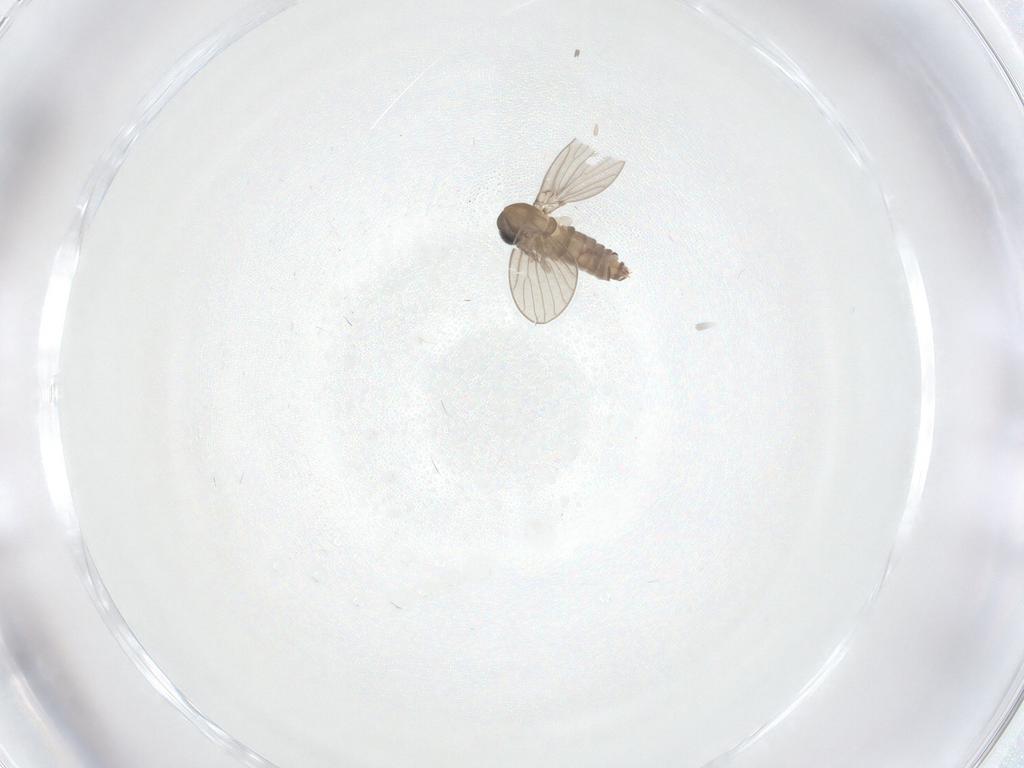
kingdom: Animalia
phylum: Arthropoda
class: Insecta
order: Diptera
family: Psychodidae
